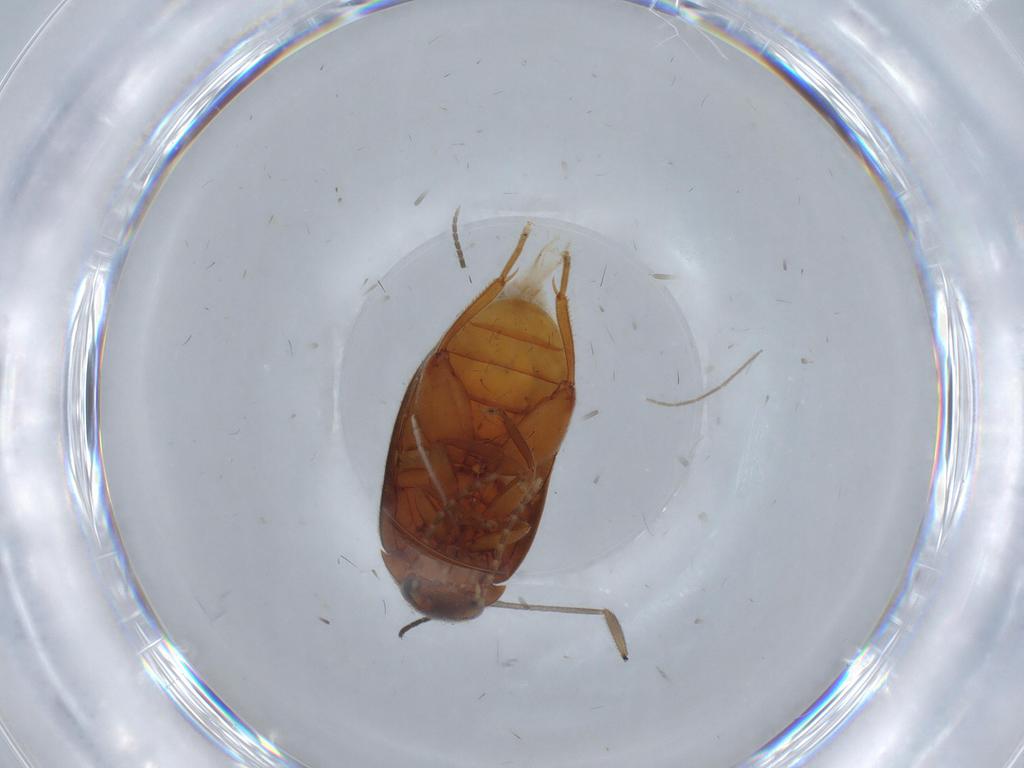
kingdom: Animalia
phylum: Arthropoda
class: Insecta
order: Coleoptera
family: Scirtidae
